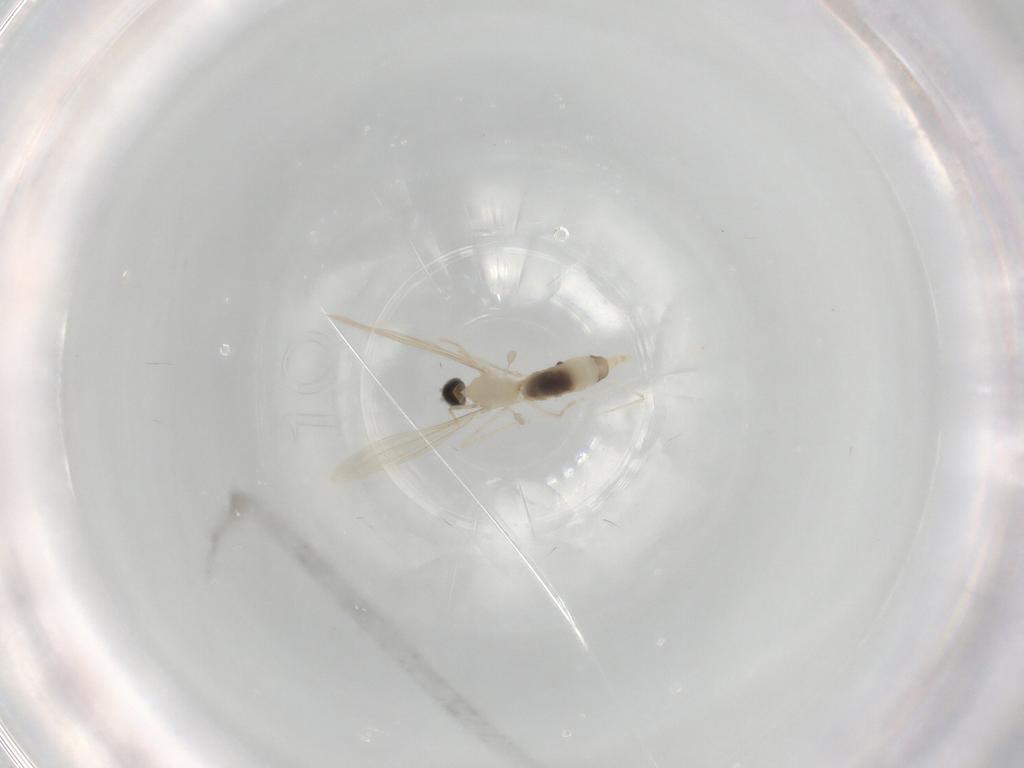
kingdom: Animalia
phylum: Arthropoda
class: Insecta
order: Diptera
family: Cecidomyiidae
